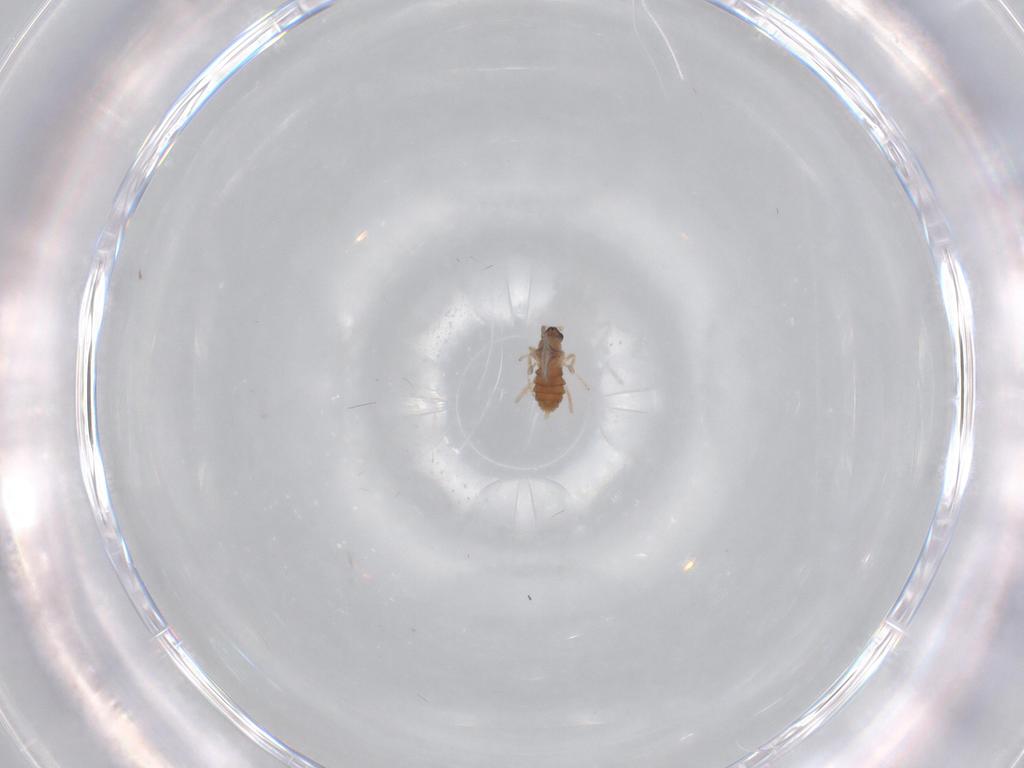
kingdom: Animalia
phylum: Arthropoda
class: Insecta
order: Diptera
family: Cecidomyiidae
